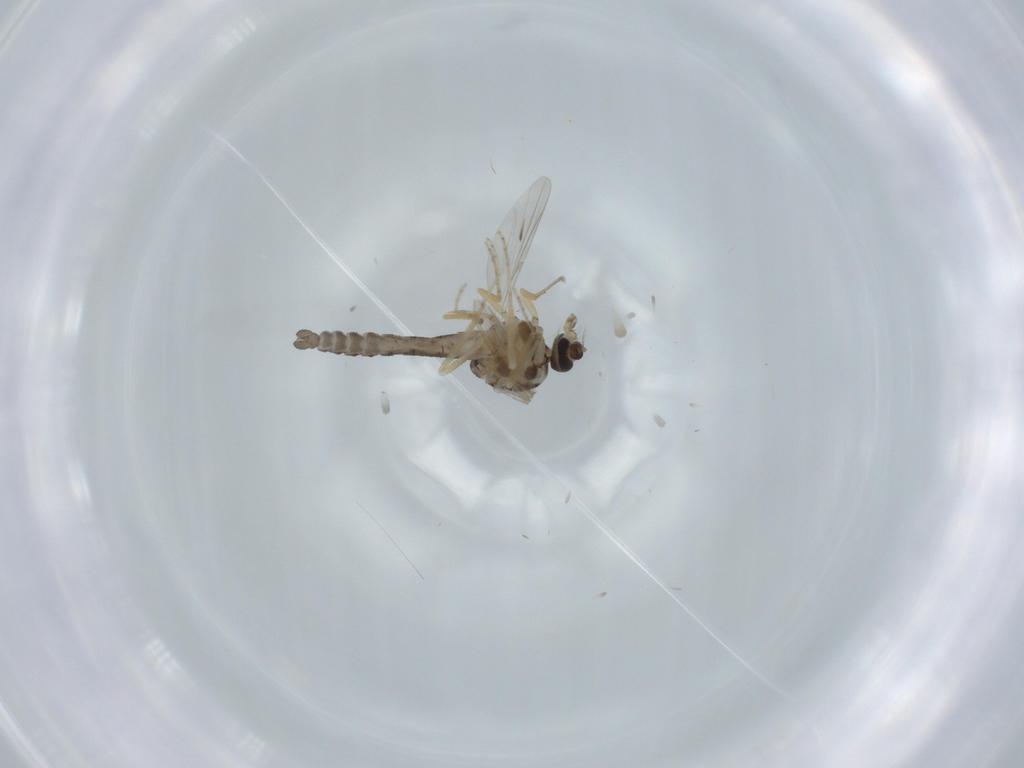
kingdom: Animalia
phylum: Arthropoda
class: Insecta
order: Diptera
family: Ceratopogonidae
